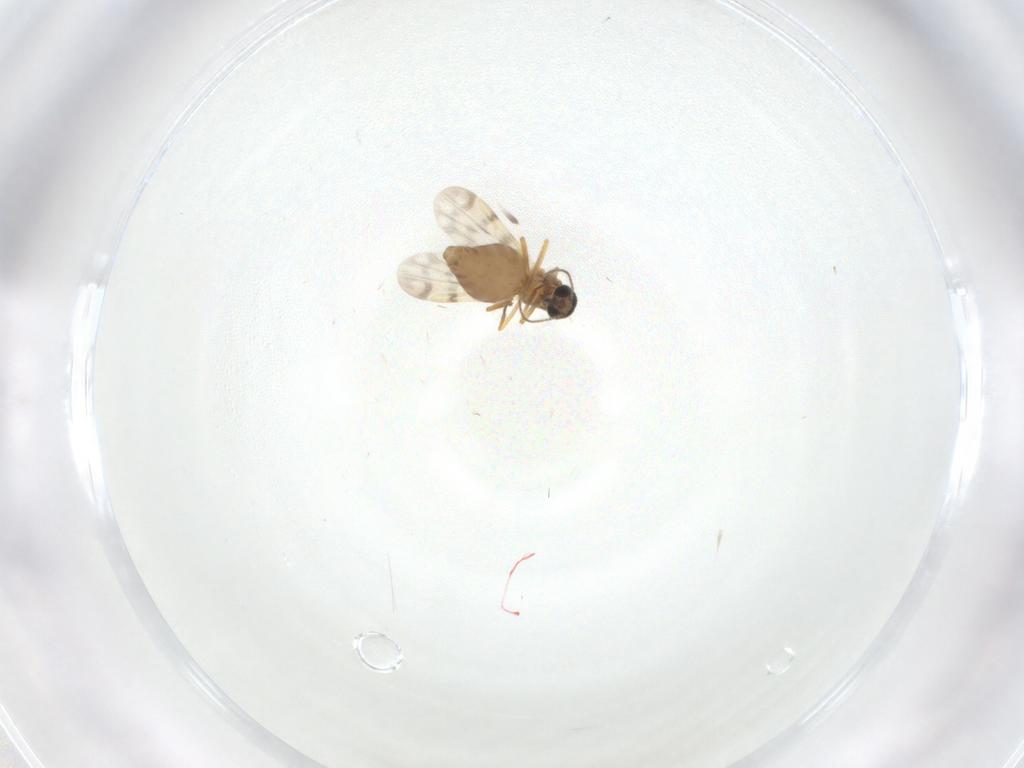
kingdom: Animalia
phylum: Arthropoda
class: Insecta
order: Diptera
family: Ceratopogonidae
